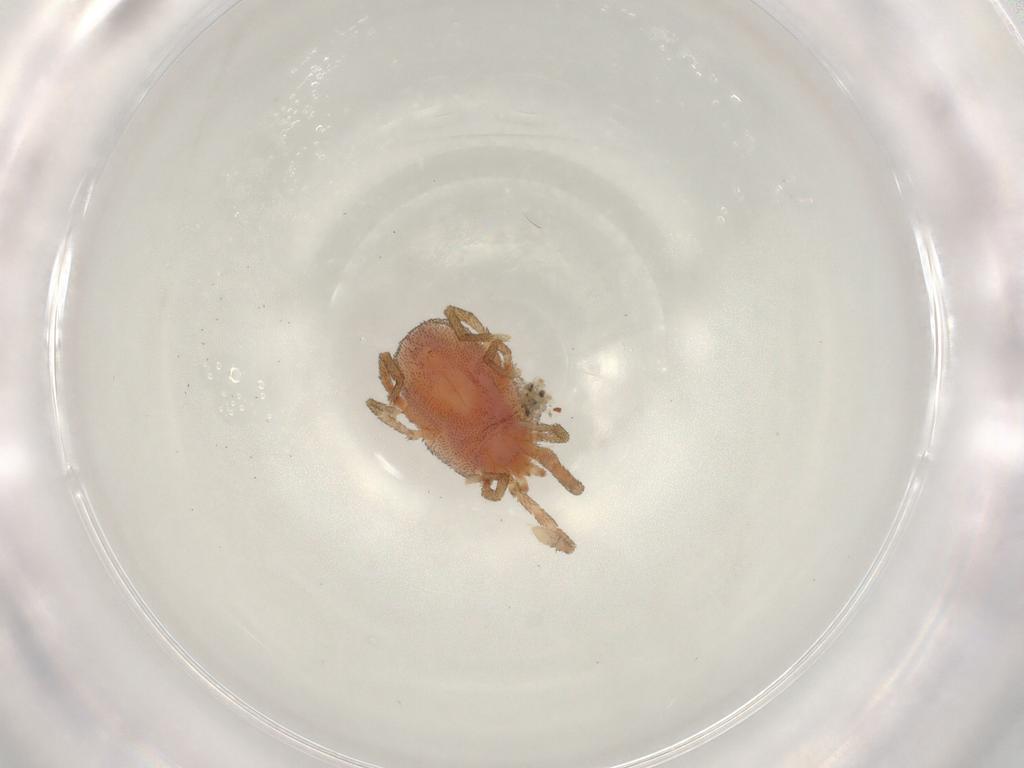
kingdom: Animalia
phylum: Arthropoda
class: Arachnida
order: Trombidiformes
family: Erythraeidae
